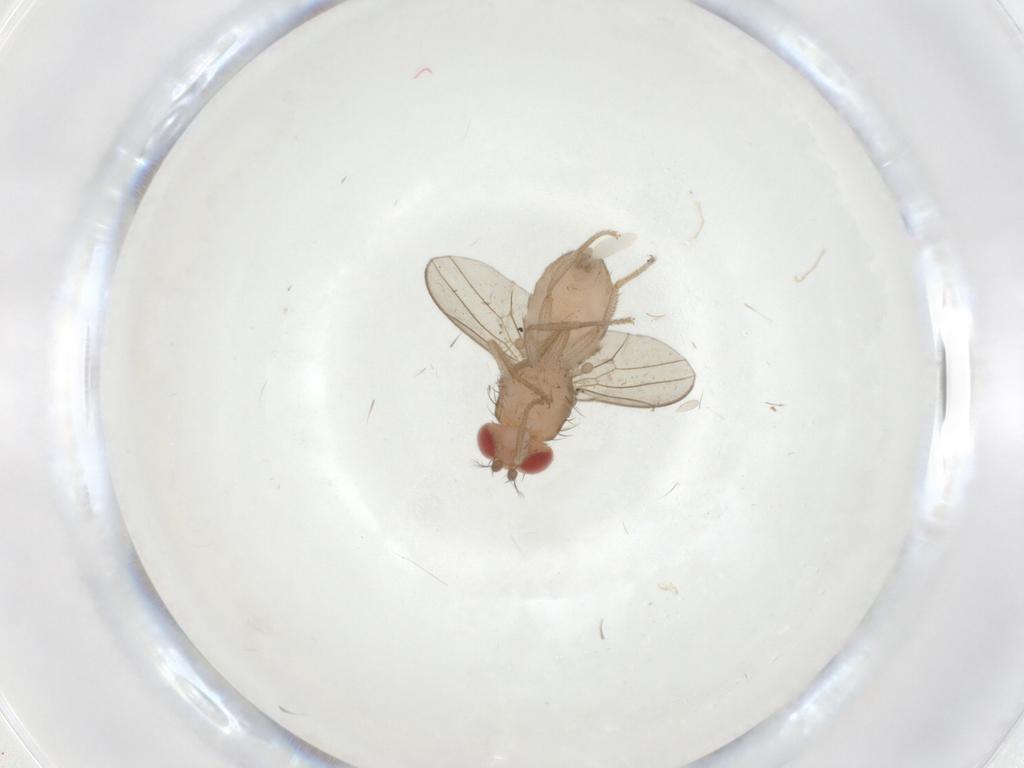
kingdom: Animalia
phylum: Arthropoda
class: Insecta
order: Diptera
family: Drosophilidae
